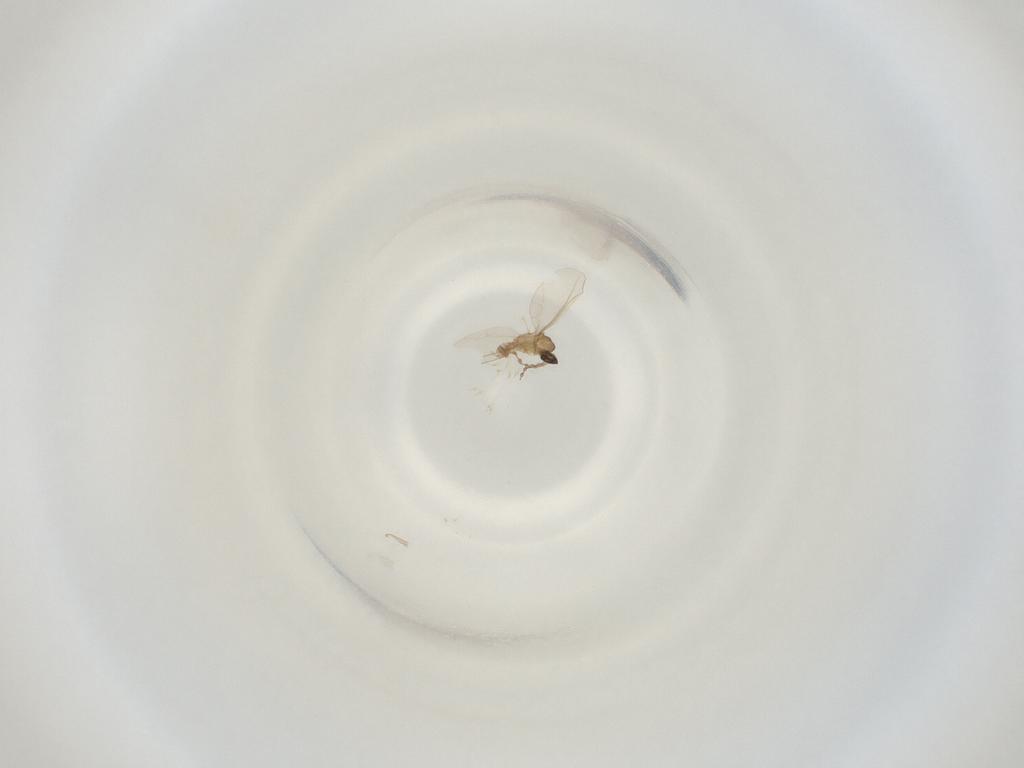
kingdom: Animalia
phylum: Arthropoda
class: Insecta
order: Diptera
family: Cecidomyiidae
